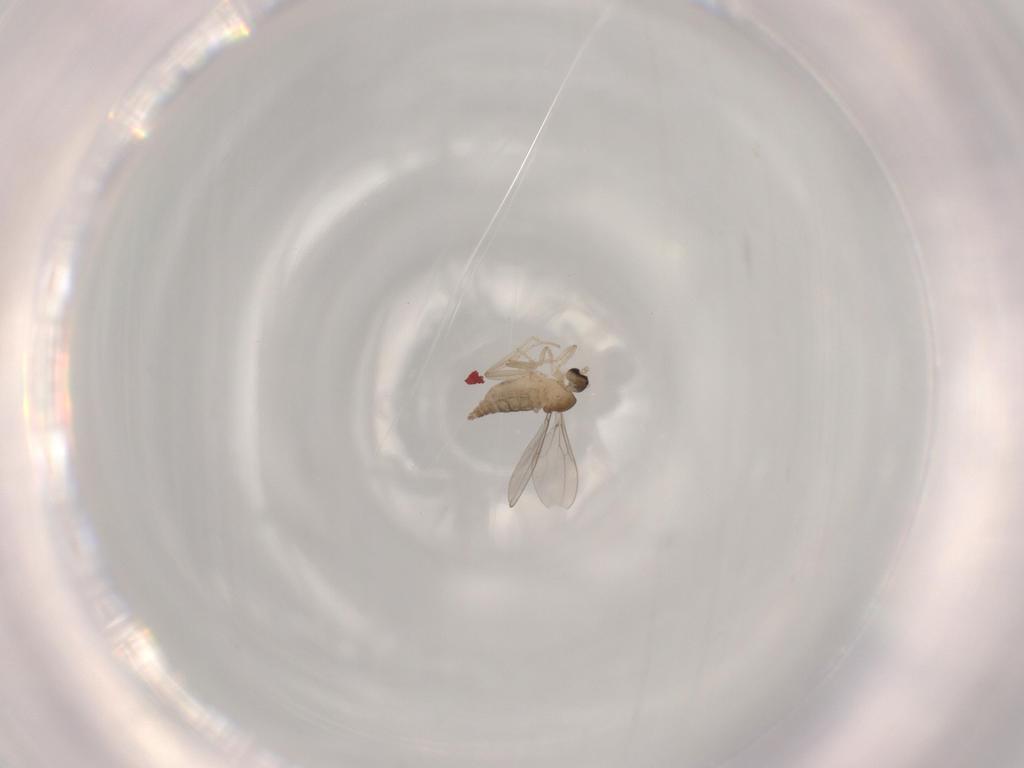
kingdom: Animalia
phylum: Arthropoda
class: Insecta
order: Diptera
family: Cecidomyiidae
